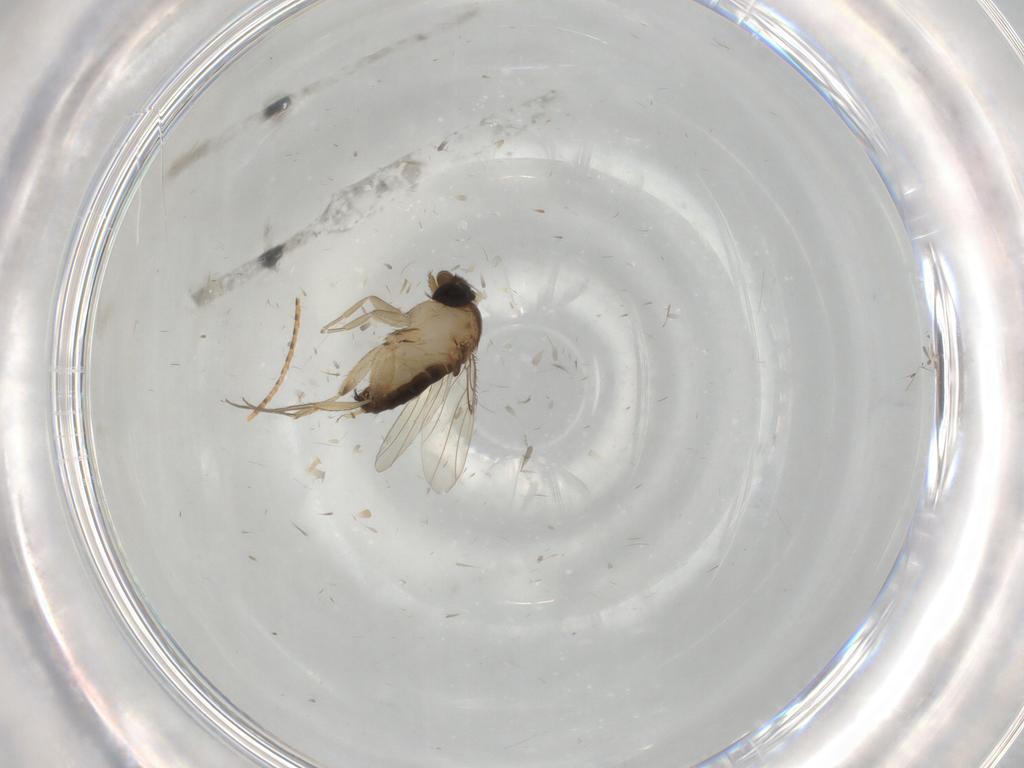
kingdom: Animalia
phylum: Arthropoda
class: Insecta
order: Diptera
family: Phoridae
